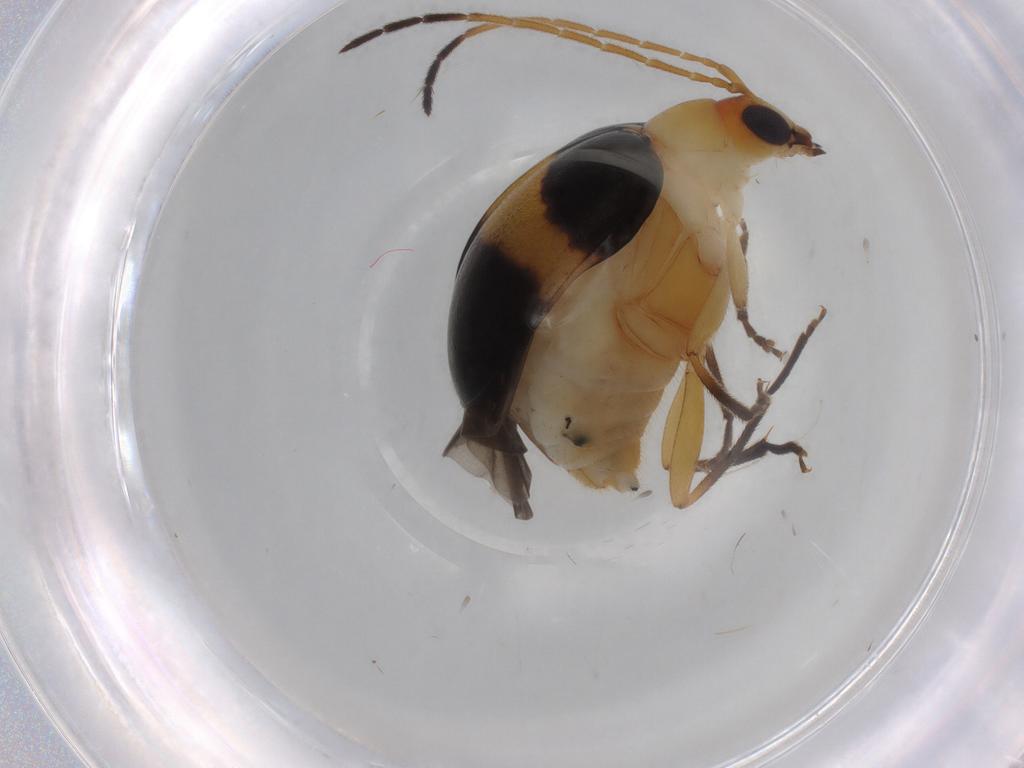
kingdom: Animalia
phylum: Arthropoda
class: Insecta
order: Coleoptera
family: Chrysomelidae
